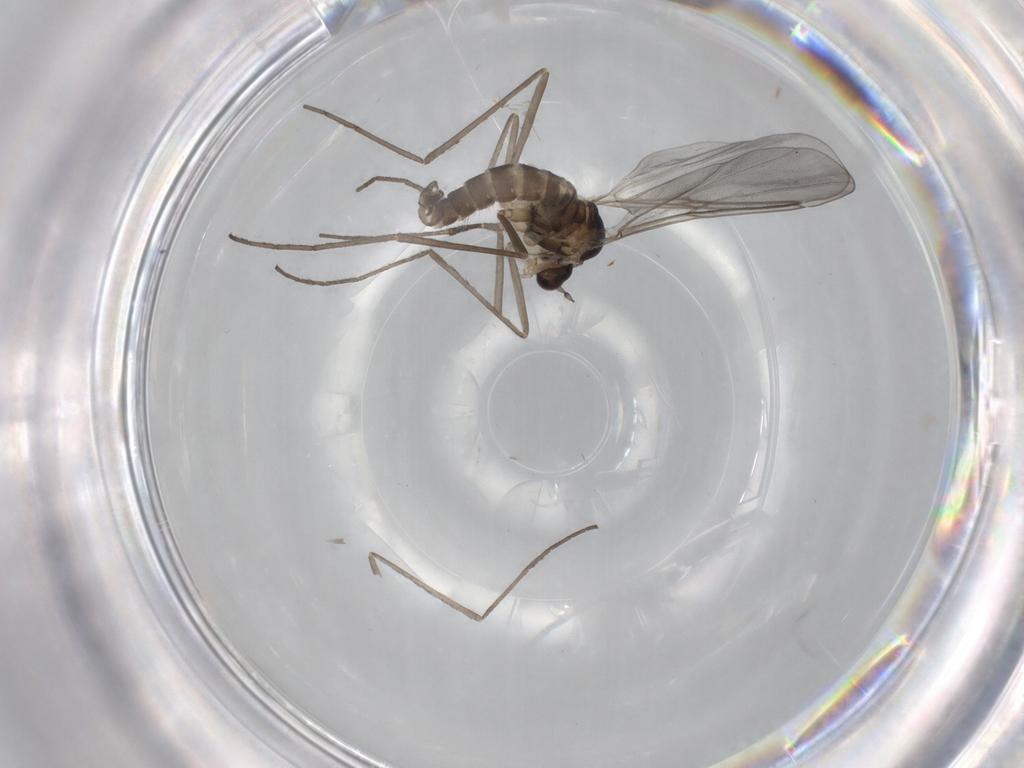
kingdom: Animalia
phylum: Arthropoda
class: Insecta
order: Diptera
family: Cecidomyiidae
